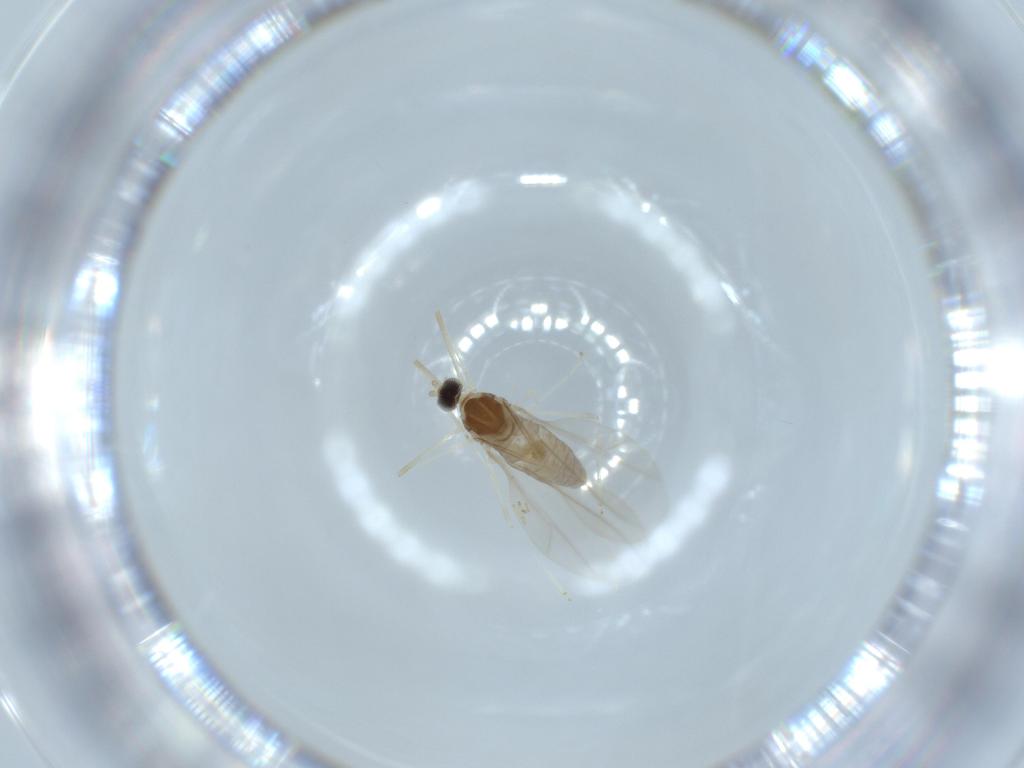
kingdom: Animalia
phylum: Arthropoda
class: Insecta
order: Diptera
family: Cecidomyiidae
